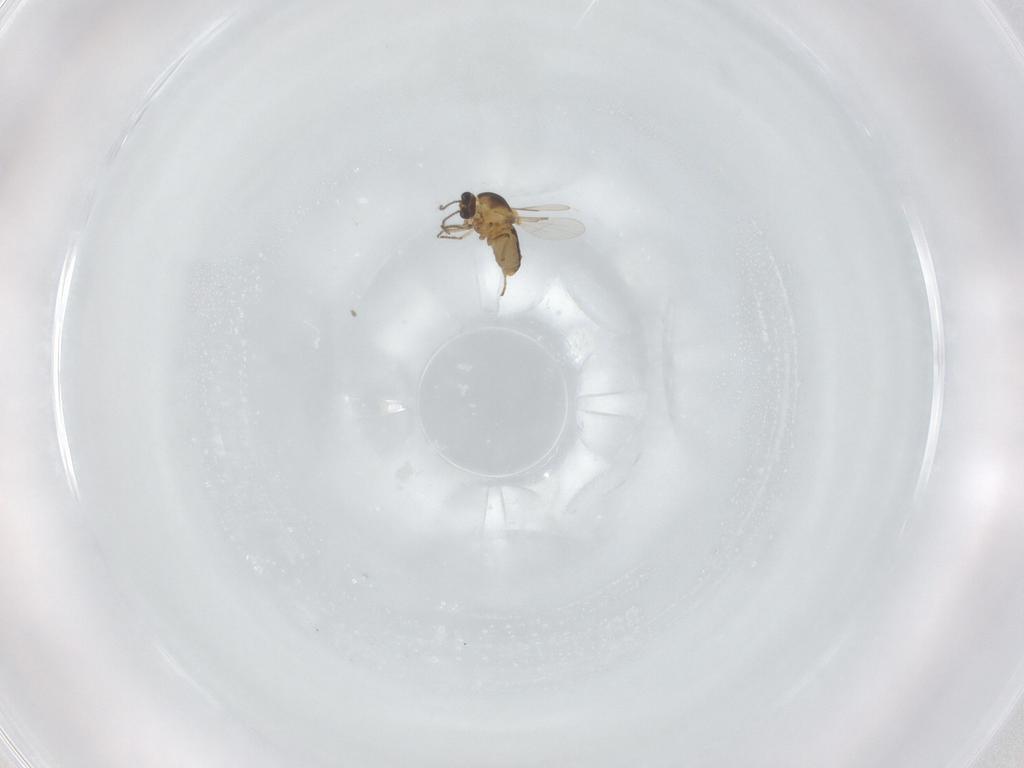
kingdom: Animalia
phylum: Arthropoda
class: Insecta
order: Diptera
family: Ceratopogonidae
